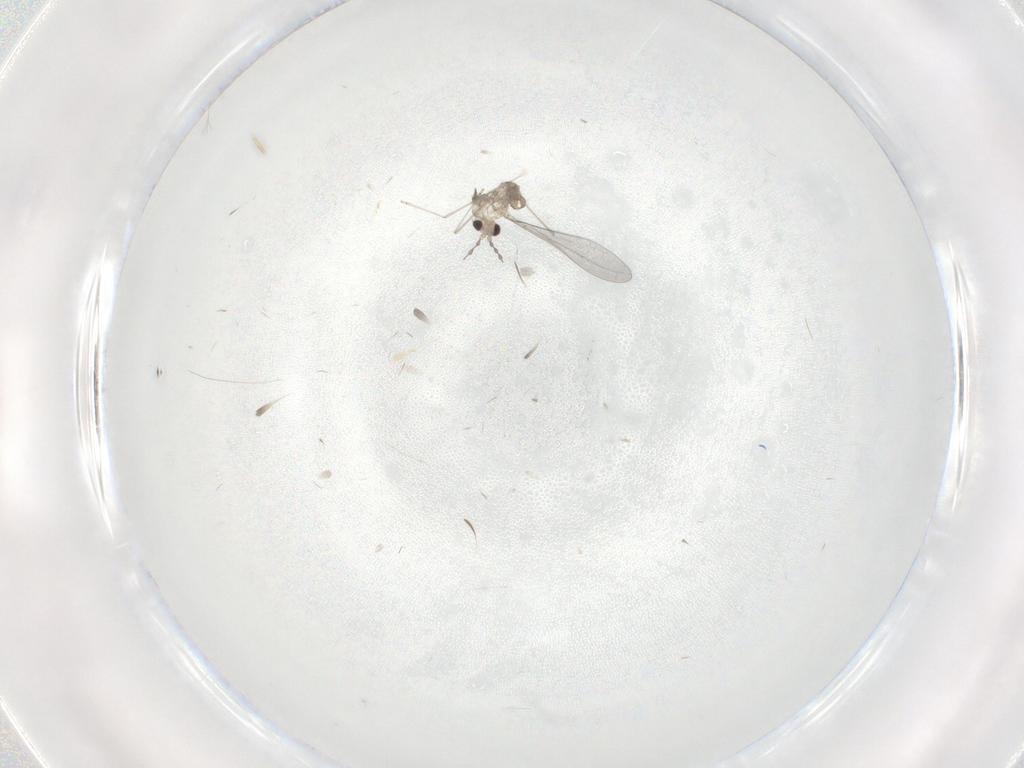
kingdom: Animalia
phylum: Arthropoda
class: Insecta
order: Diptera
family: Cecidomyiidae
